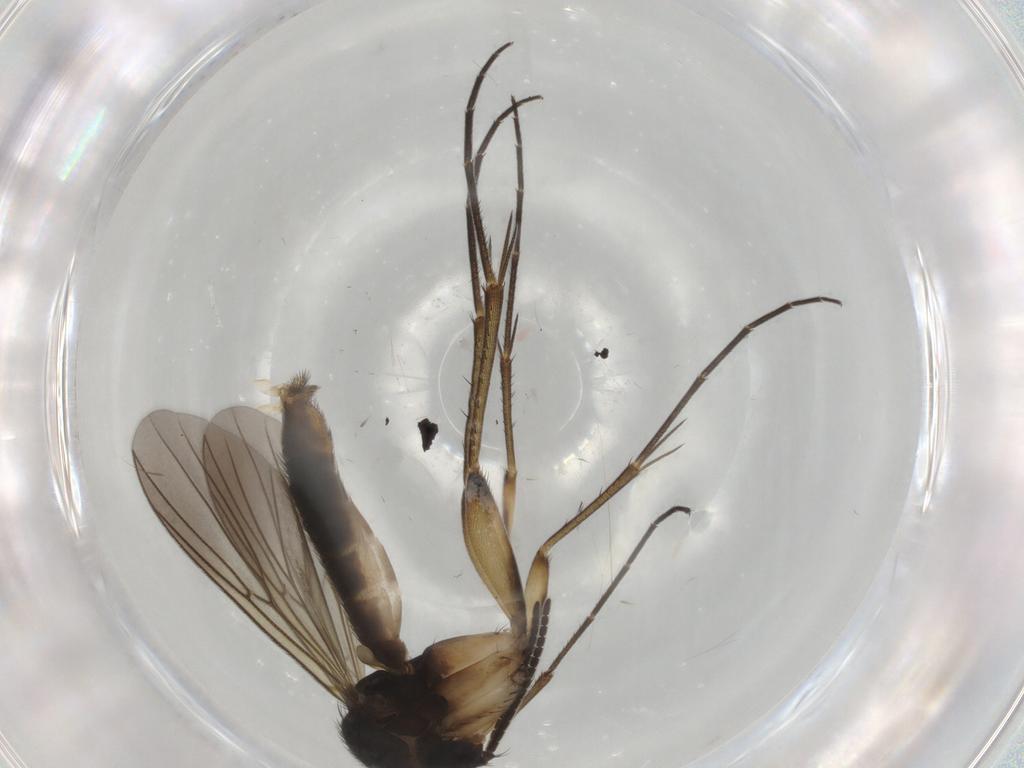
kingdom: Animalia
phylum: Arthropoda
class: Insecta
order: Diptera
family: Mycetophilidae
